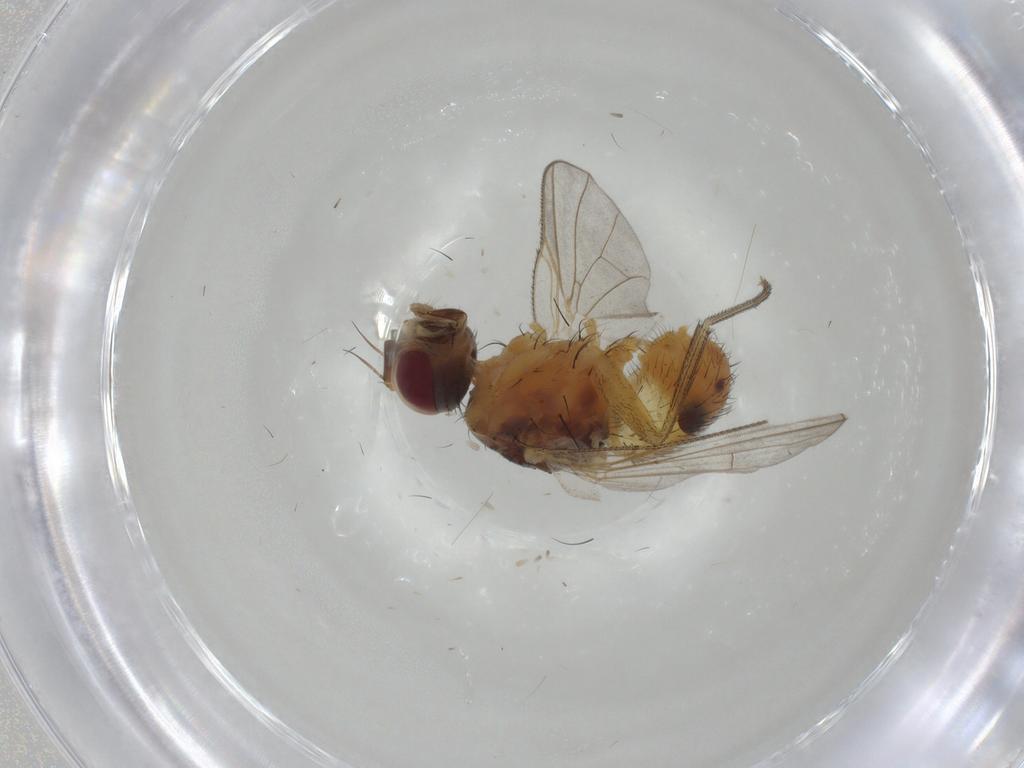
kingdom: Animalia
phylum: Arthropoda
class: Insecta
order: Diptera
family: Muscidae
